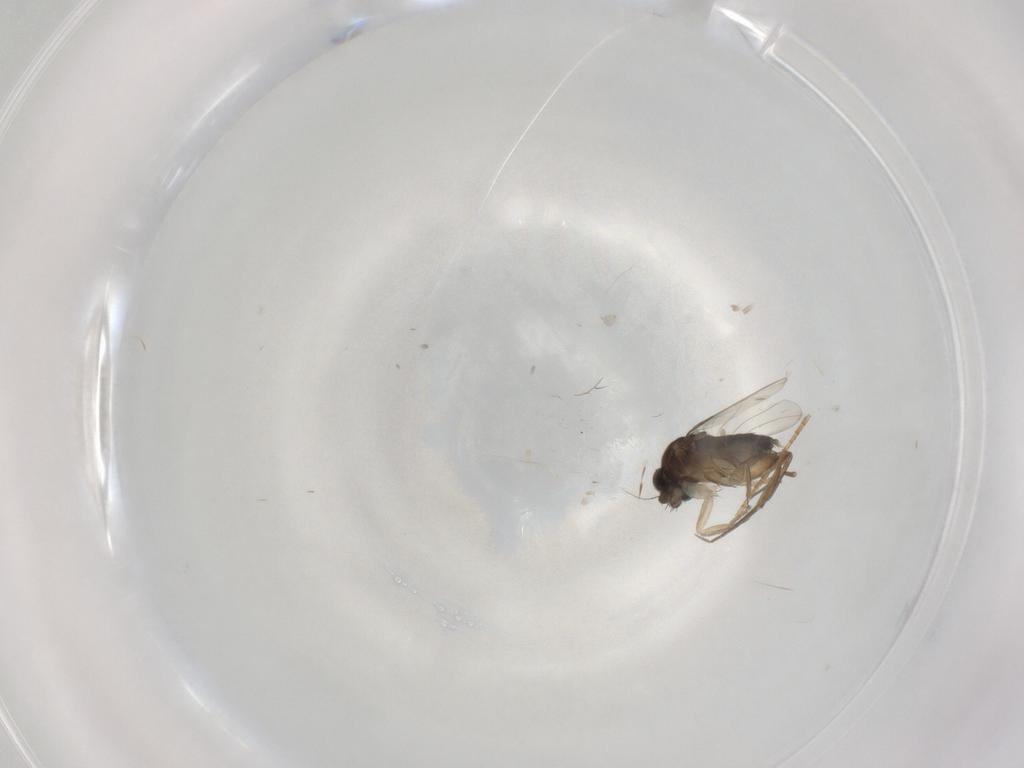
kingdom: Animalia
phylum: Arthropoda
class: Insecta
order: Diptera
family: Phoridae
